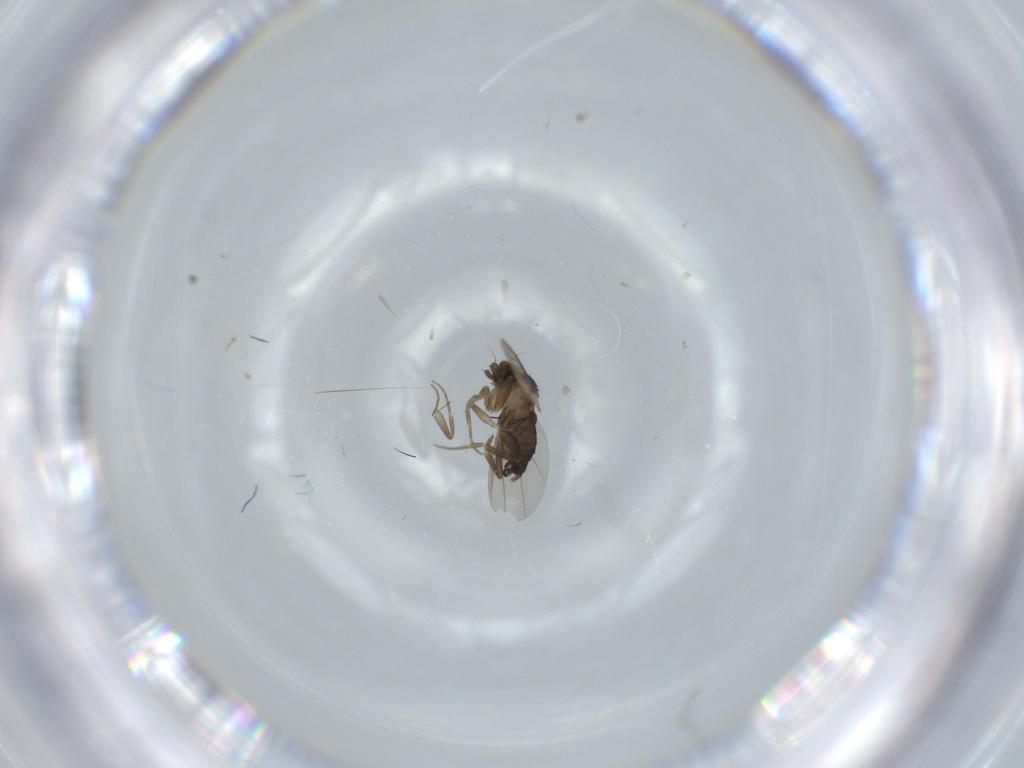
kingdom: Animalia
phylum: Arthropoda
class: Insecta
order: Diptera
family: Phoridae
